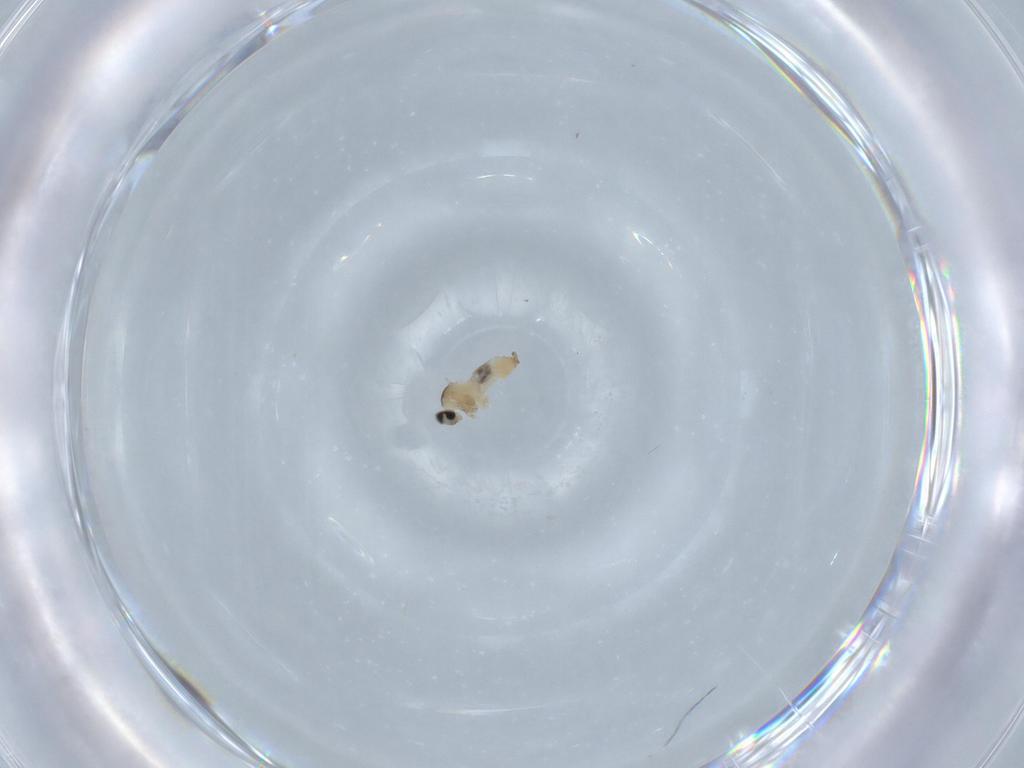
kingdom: Animalia
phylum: Arthropoda
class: Insecta
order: Diptera
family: Cecidomyiidae
